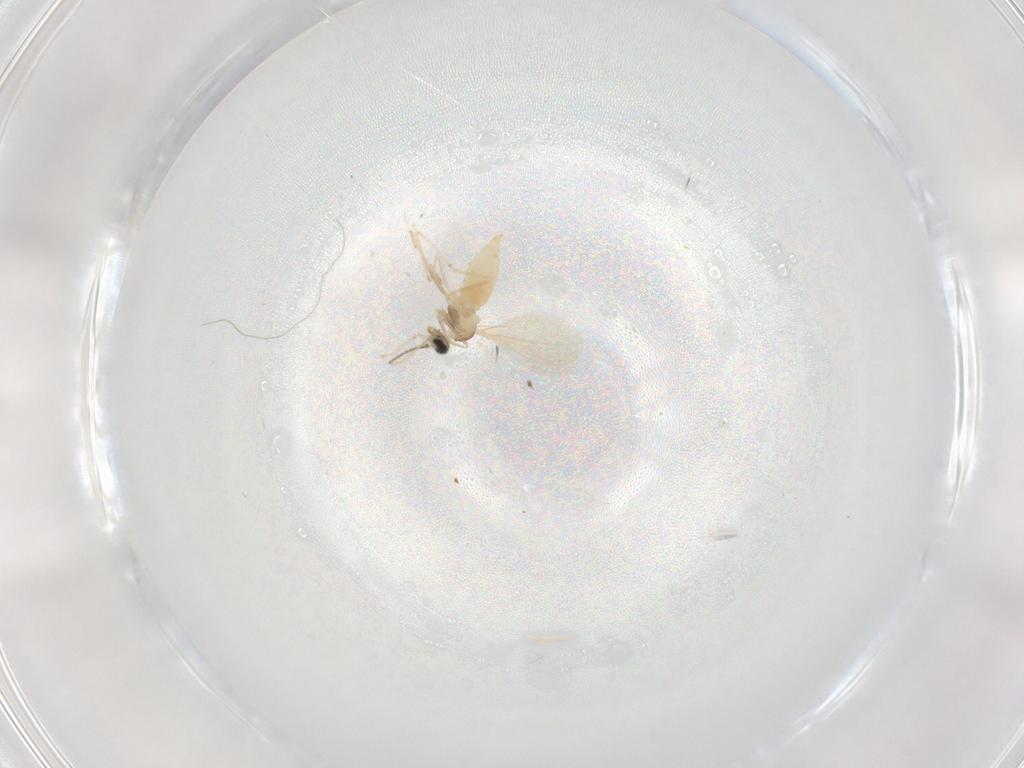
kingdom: Animalia
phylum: Arthropoda
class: Insecta
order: Diptera
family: Cecidomyiidae
